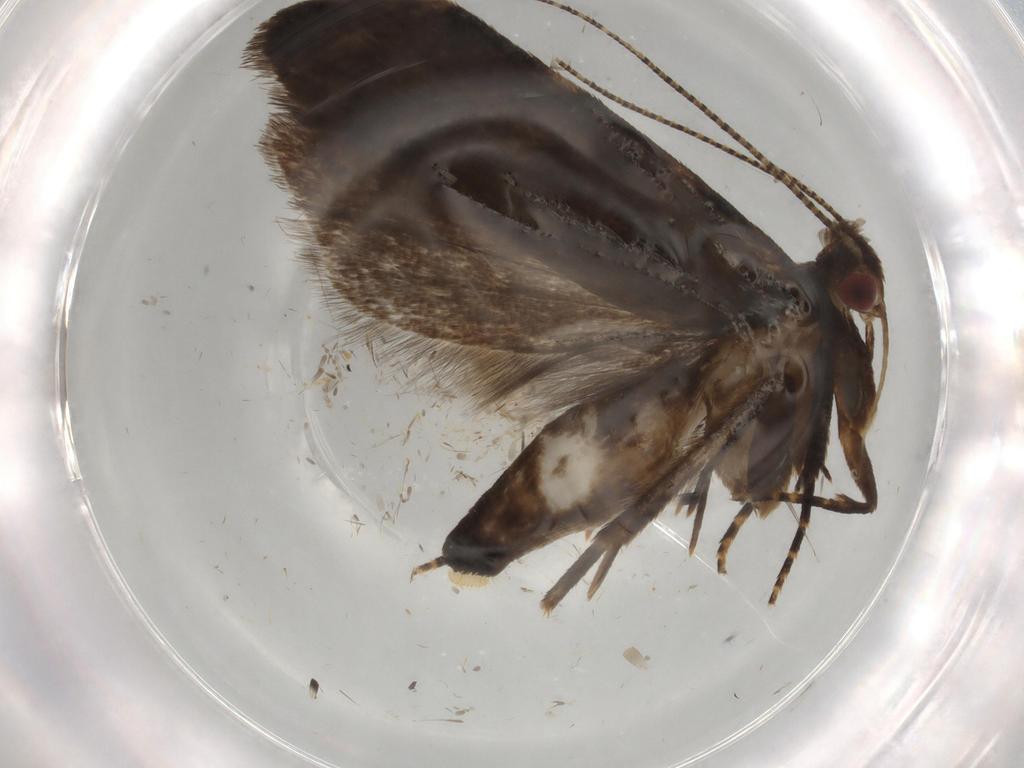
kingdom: Animalia
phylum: Arthropoda
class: Insecta
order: Lepidoptera
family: Gelechiidae
